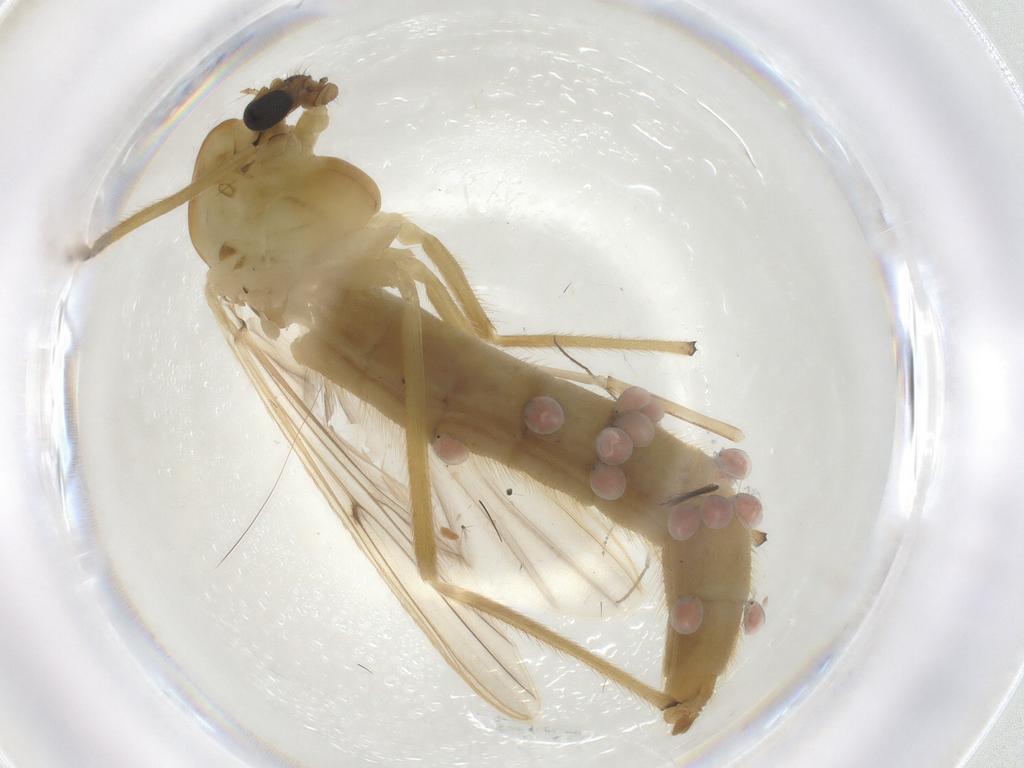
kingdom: Animalia
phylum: Arthropoda
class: Insecta
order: Diptera
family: Chironomidae
